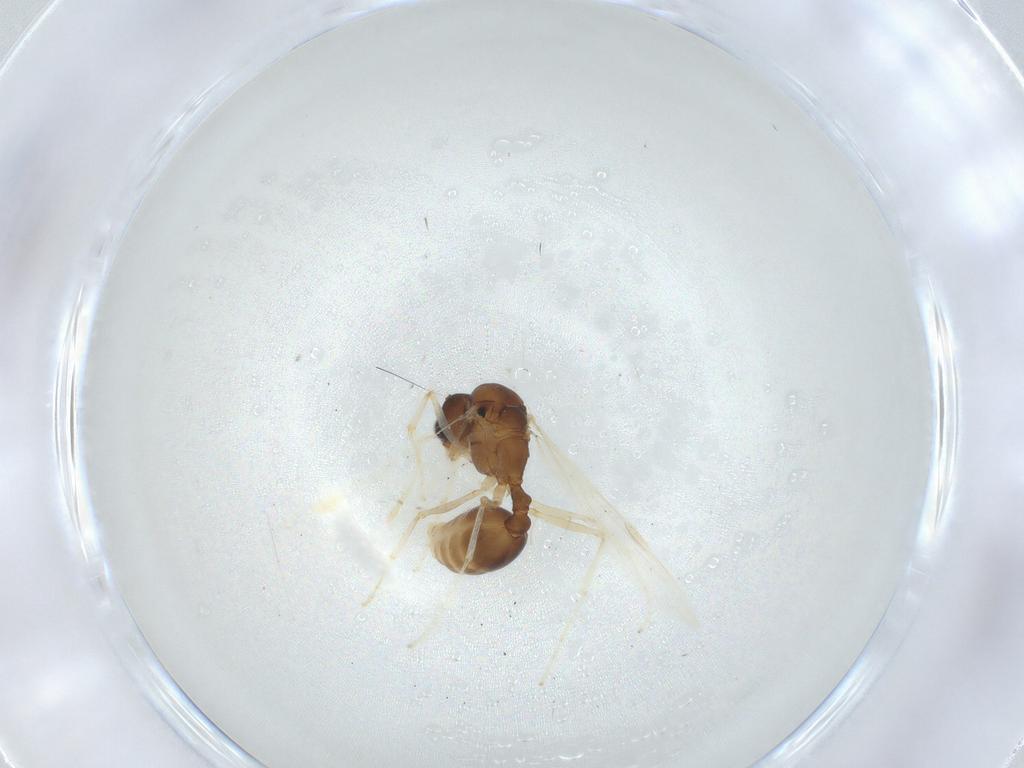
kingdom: Animalia
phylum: Arthropoda
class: Insecta
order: Hymenoptera
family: Formicidae
